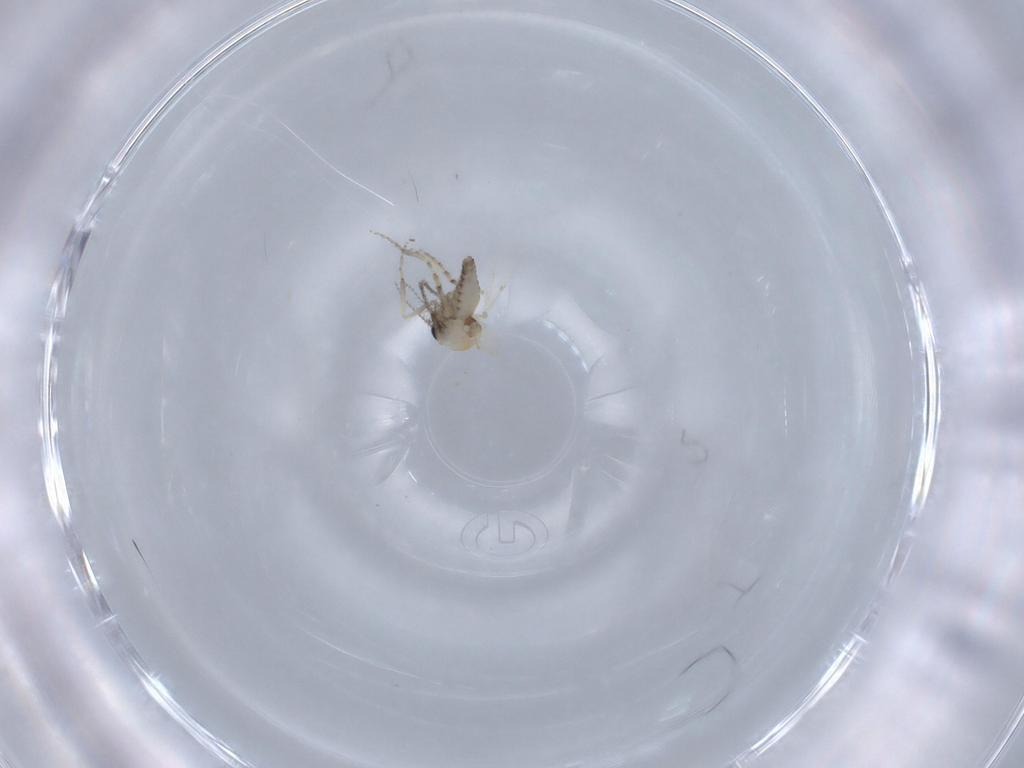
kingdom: Animalia
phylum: Arthropoda
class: Insecta
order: Diptera
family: Ceratopogonidae
